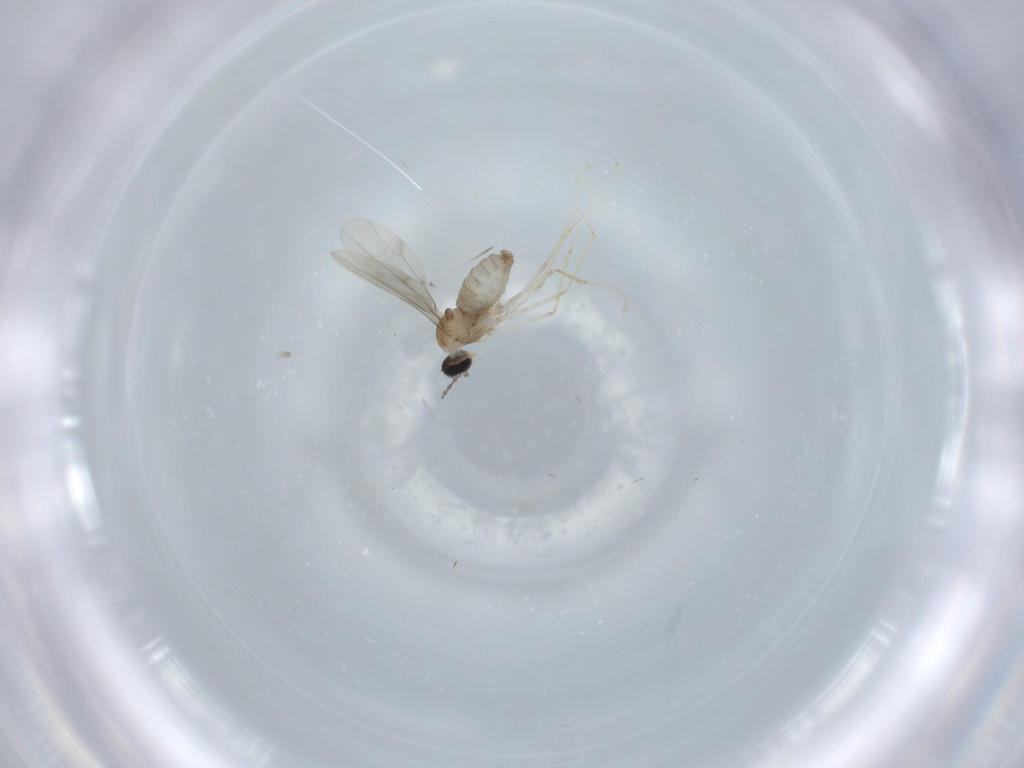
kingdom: Animalia
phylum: Arthropoda
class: Insecta
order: Diptera
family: Cecidomyiidae
